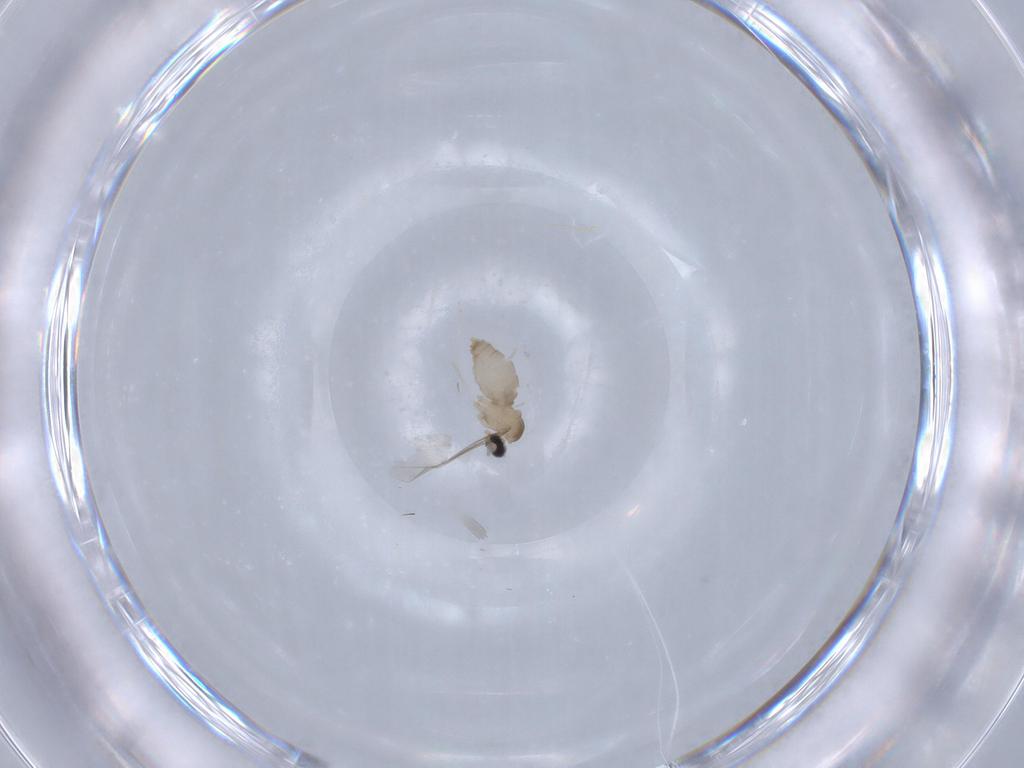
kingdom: Animalia
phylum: Arthropoda
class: Insecta
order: Diptera
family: Cecidomyiidae
